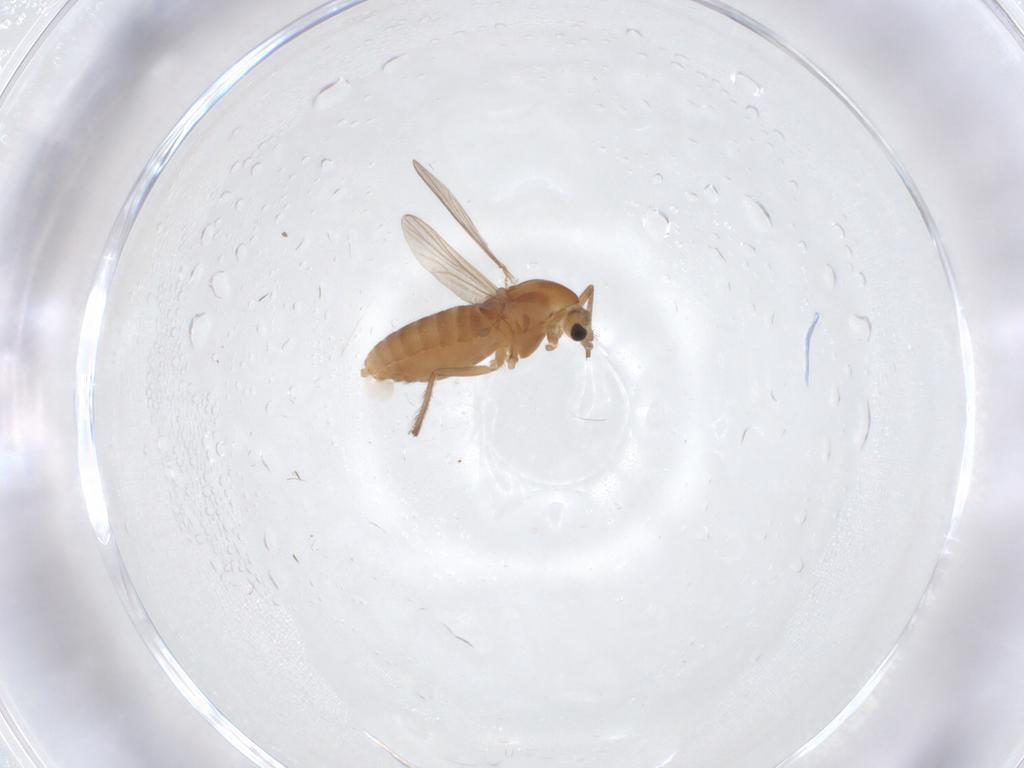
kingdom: Animalia
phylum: Arthropoda
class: Insecta
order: Diptera
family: Chironomidae
